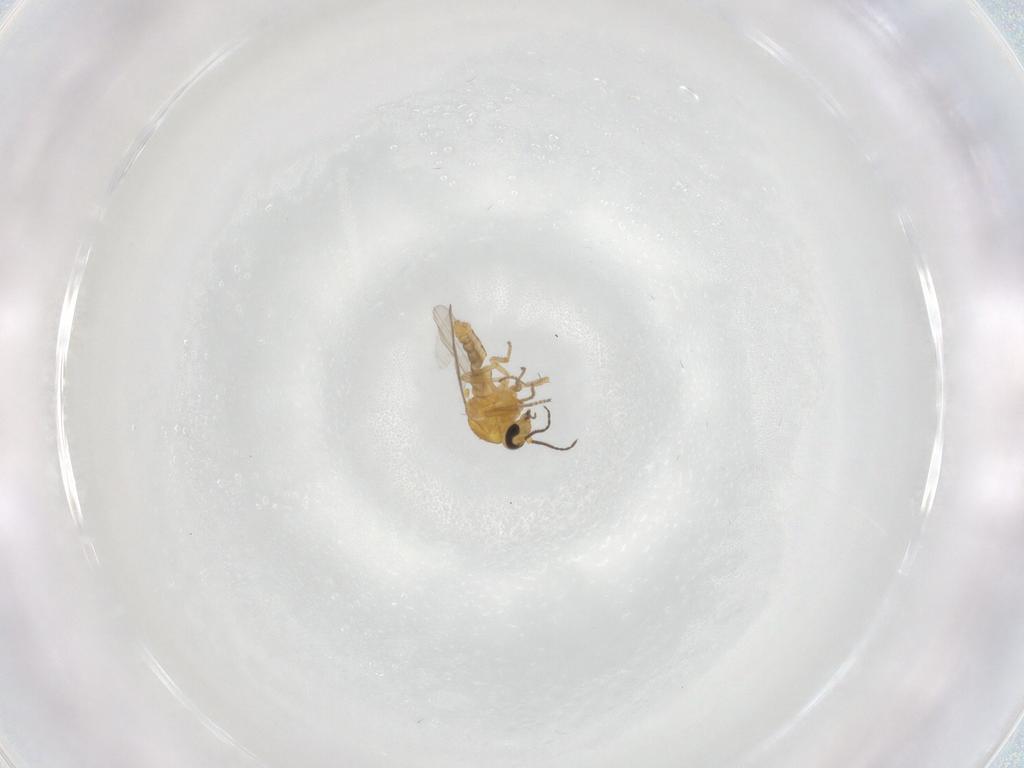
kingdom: Animalia
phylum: Arthropoda
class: Insecta
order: Diptera
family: Ceratopogonidae
